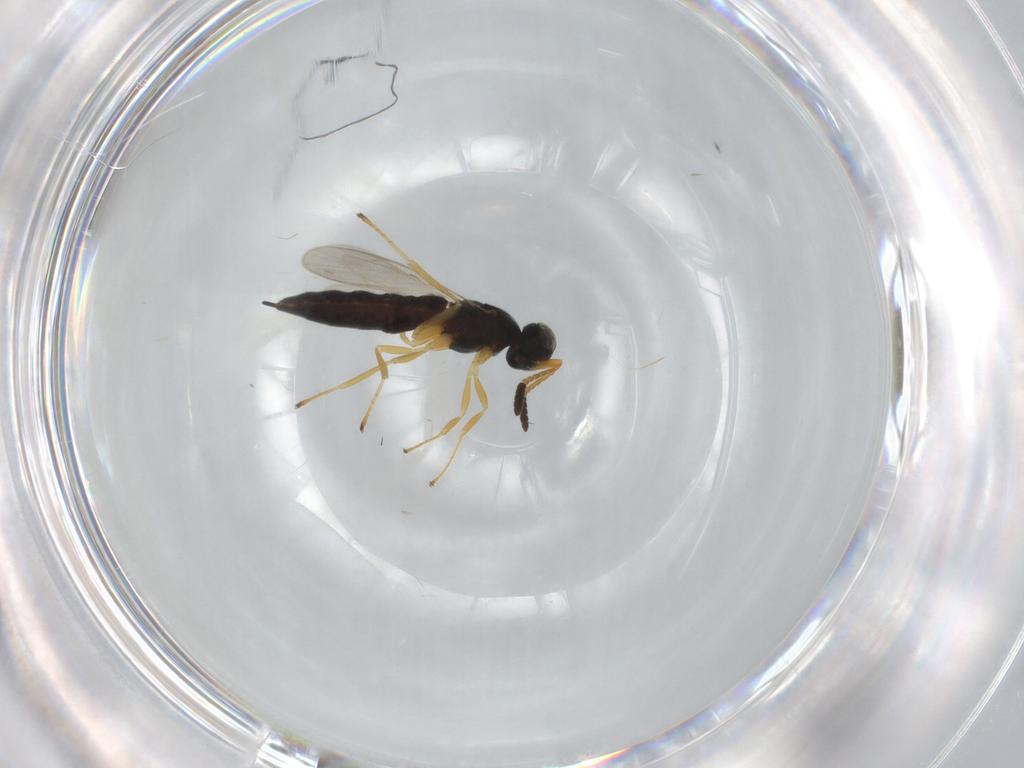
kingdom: Animalia
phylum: Arthropoda
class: Insecta
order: Hymenoptera
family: Scelionidae
